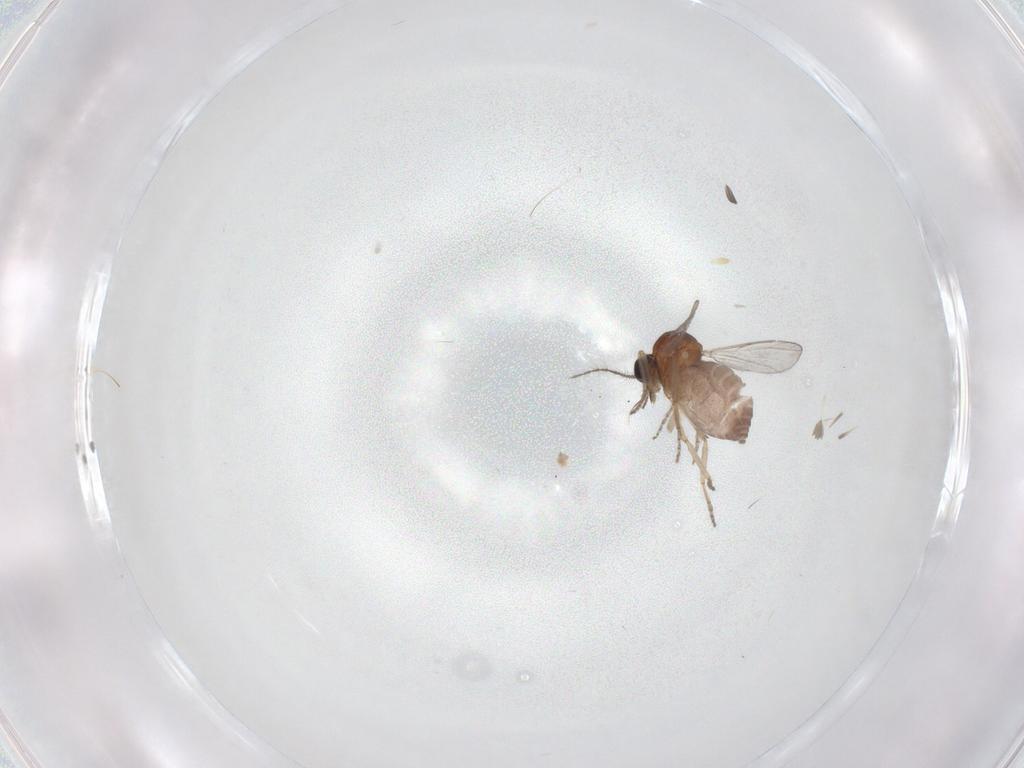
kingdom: Animalia
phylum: Arthropoda
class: Insecta
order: Diptera
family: Ceratopogonidae
